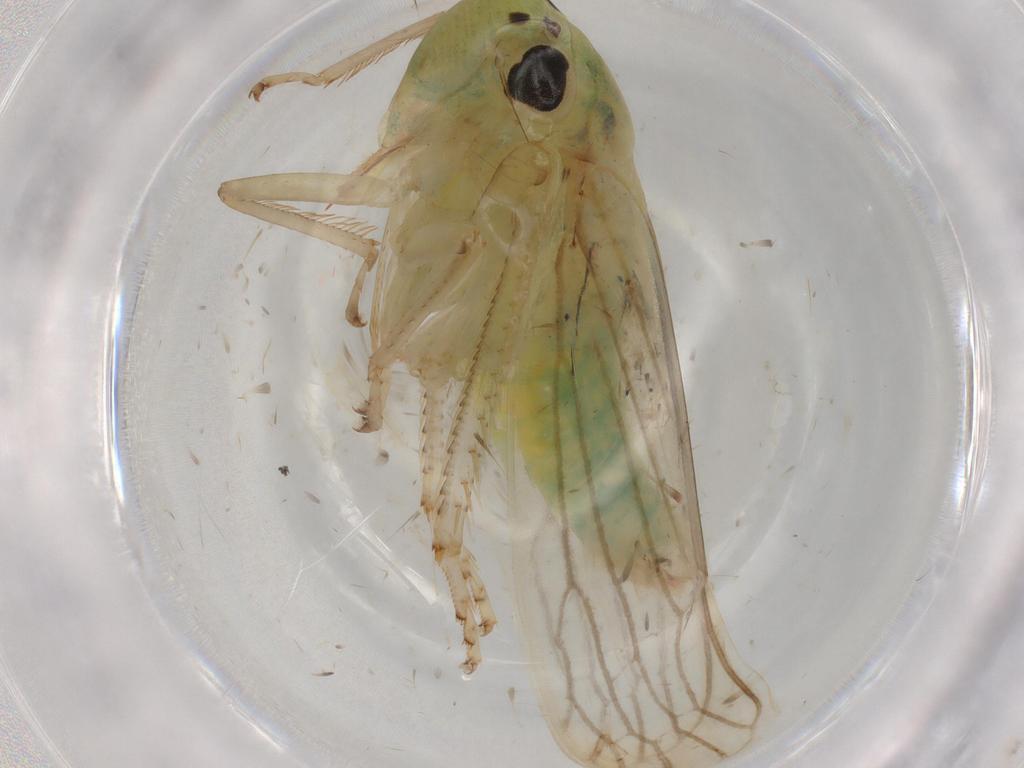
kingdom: Animalia
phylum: Arthropoda
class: Insecta
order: Hemiptera
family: Cicadellidae
